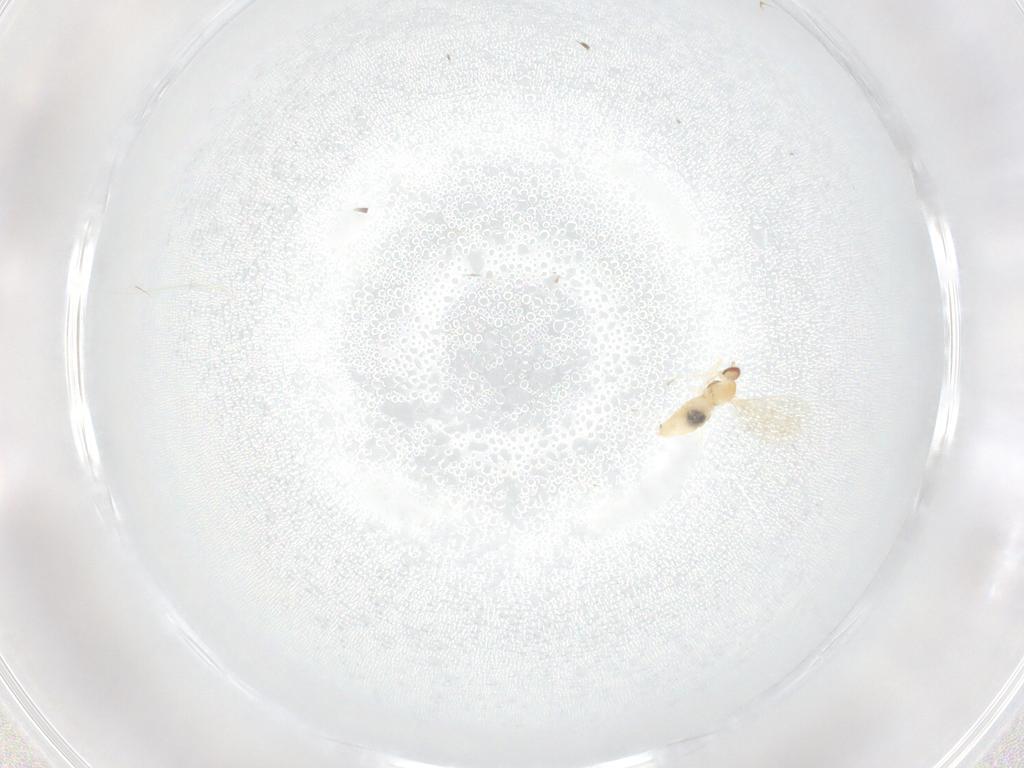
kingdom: Animalia
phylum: Arthropoda
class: Insecta
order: Diptera
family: Cecidomyiidae
